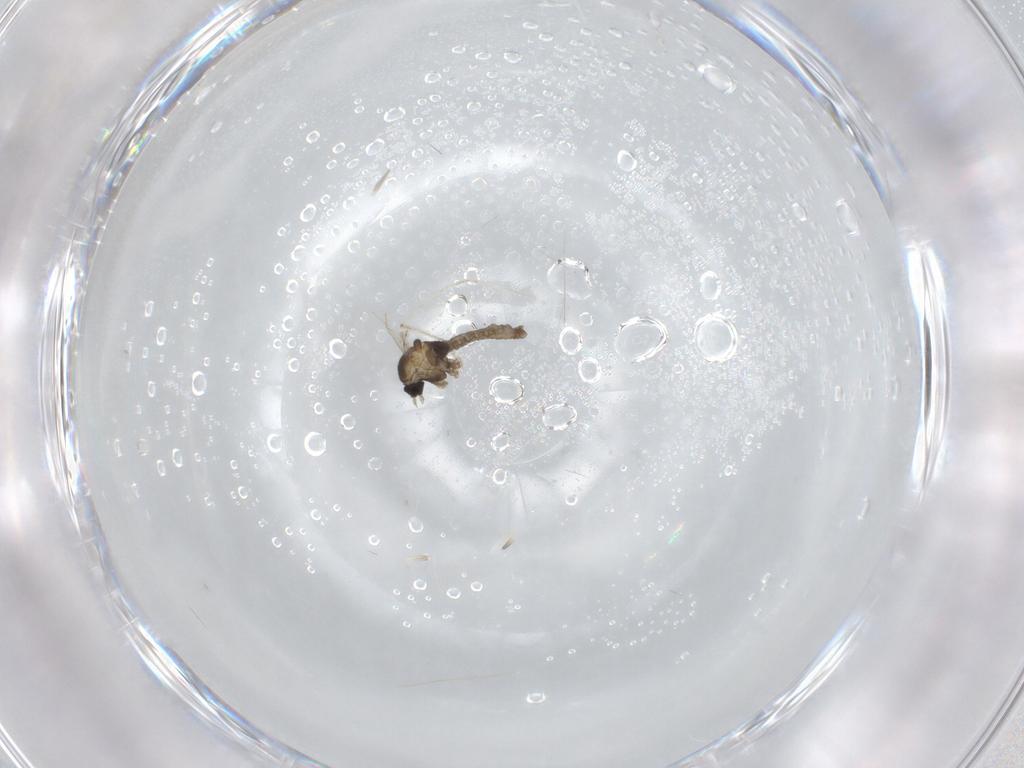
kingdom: Animalia
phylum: Arthropoda
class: Insecta
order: Diptera
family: Cecidomyiidae
